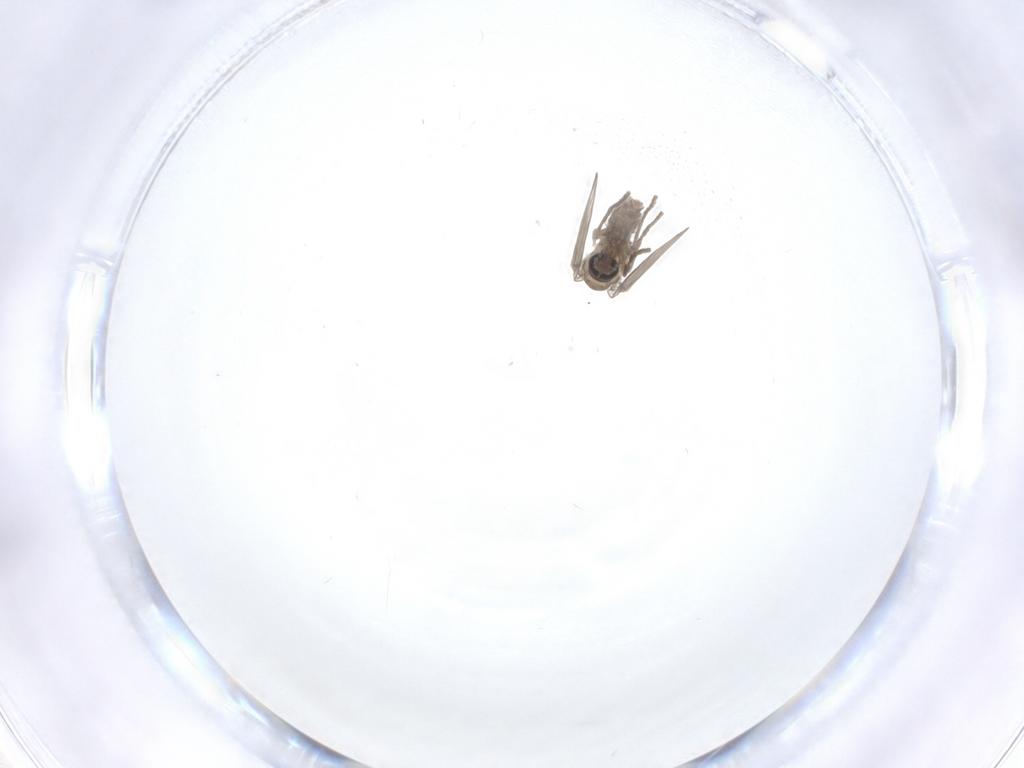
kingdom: Animalia
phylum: Arthropoda
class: Insecta
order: Diptera
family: Psychodidae
